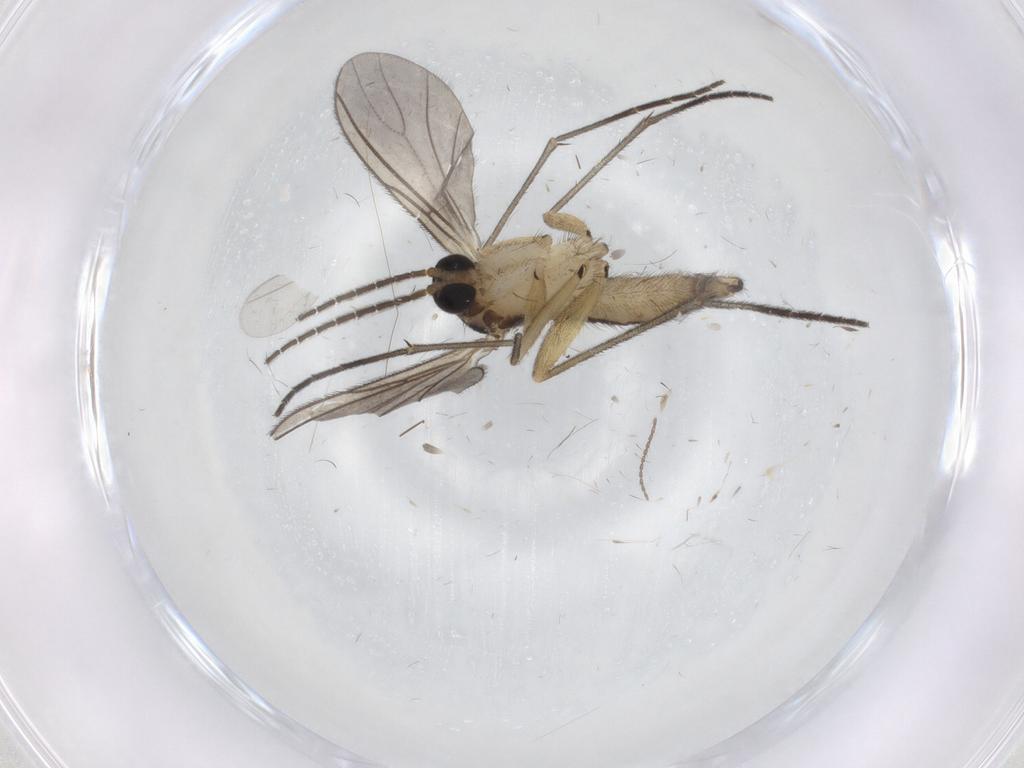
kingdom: Animalia
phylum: Arthropoda
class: Insecta
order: Diptera
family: Sciaridae
